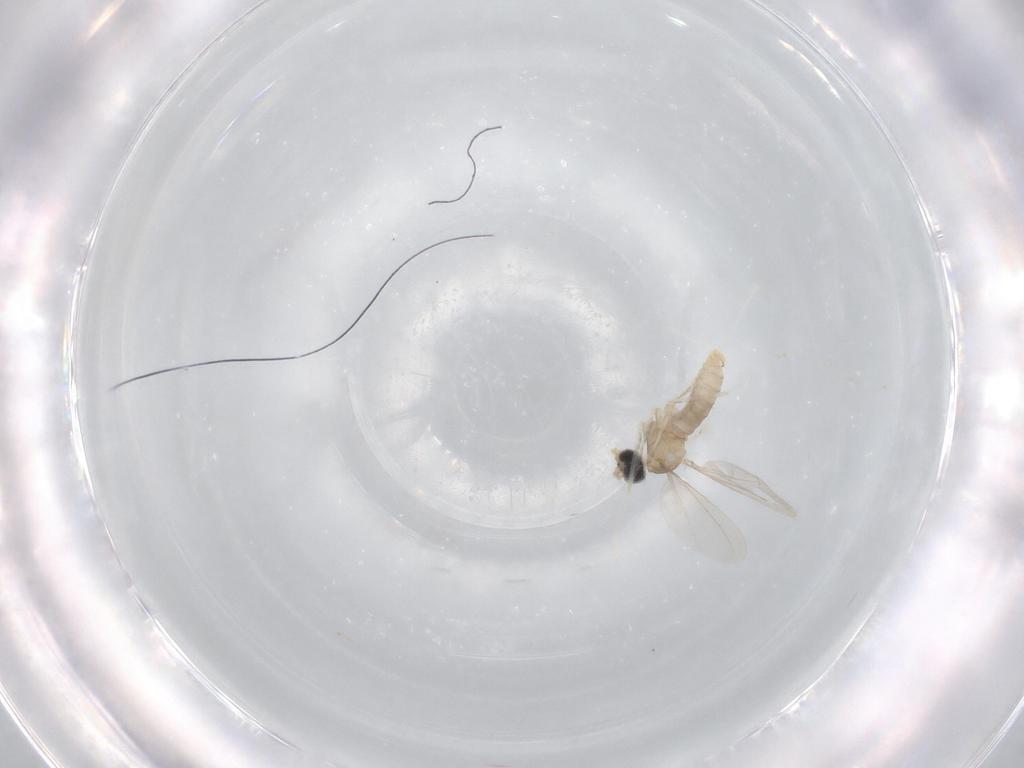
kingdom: Animalia
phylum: Arthropoda
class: Insecta
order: Diptera
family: Cecidomyiidae
